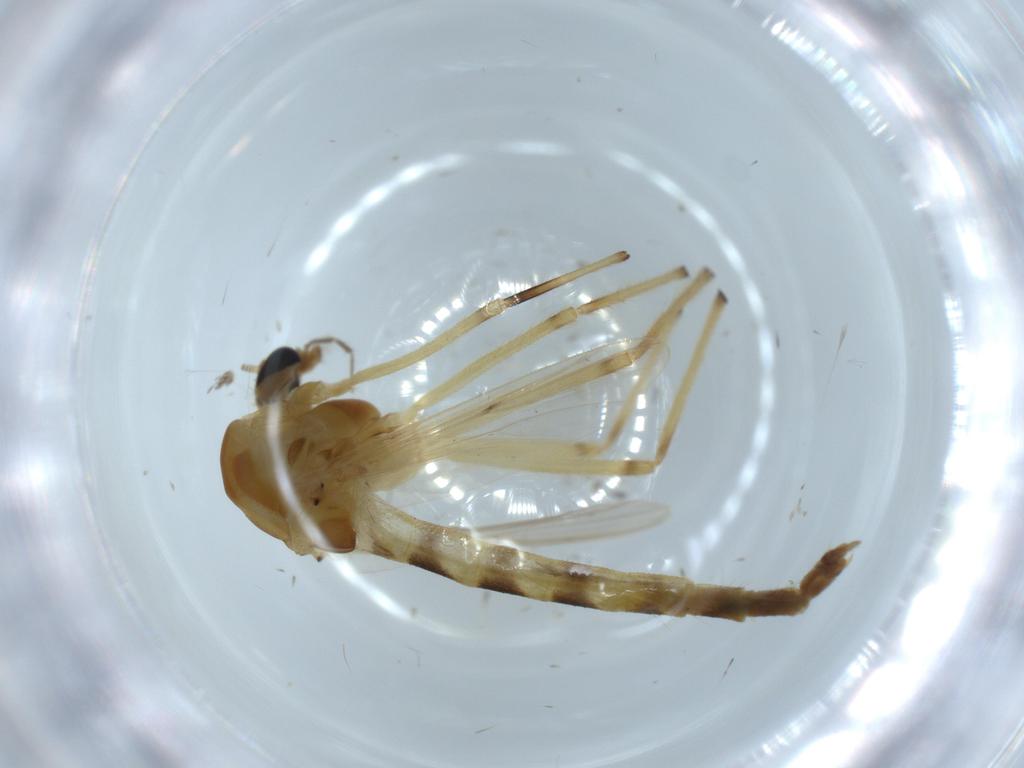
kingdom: Animalia
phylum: Arthropoda
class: Insecta
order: Diptera
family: Chironomidae
